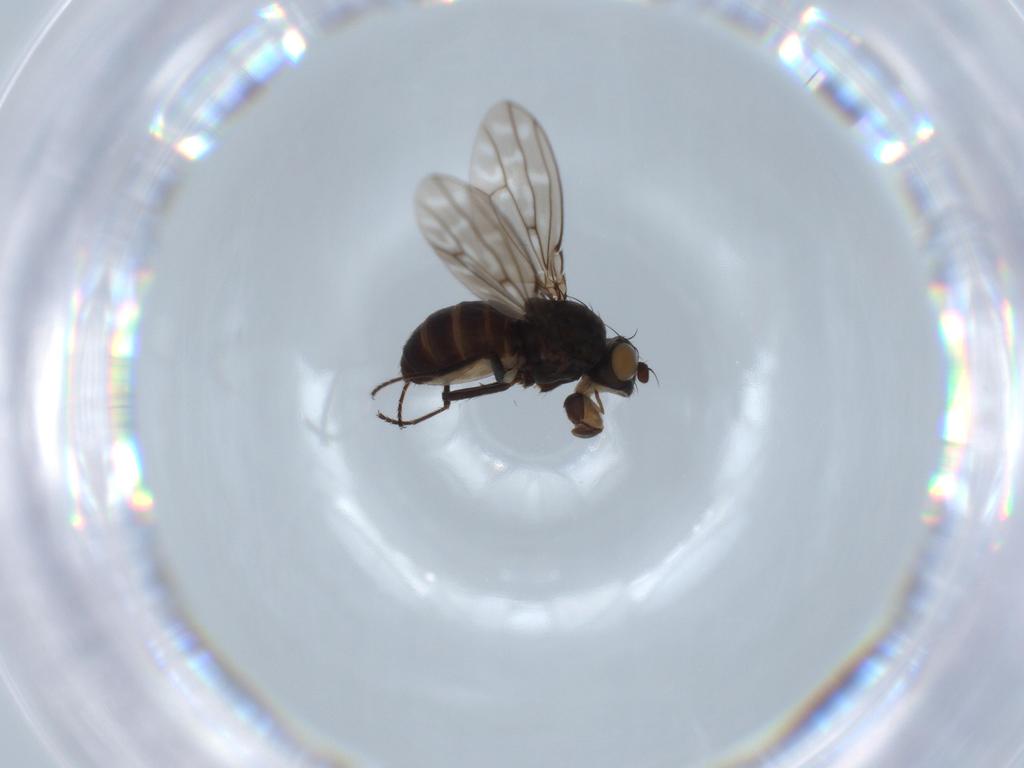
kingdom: Animalia
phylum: Arthropoda
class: Insecta
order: Diptera
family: Ephydridae
